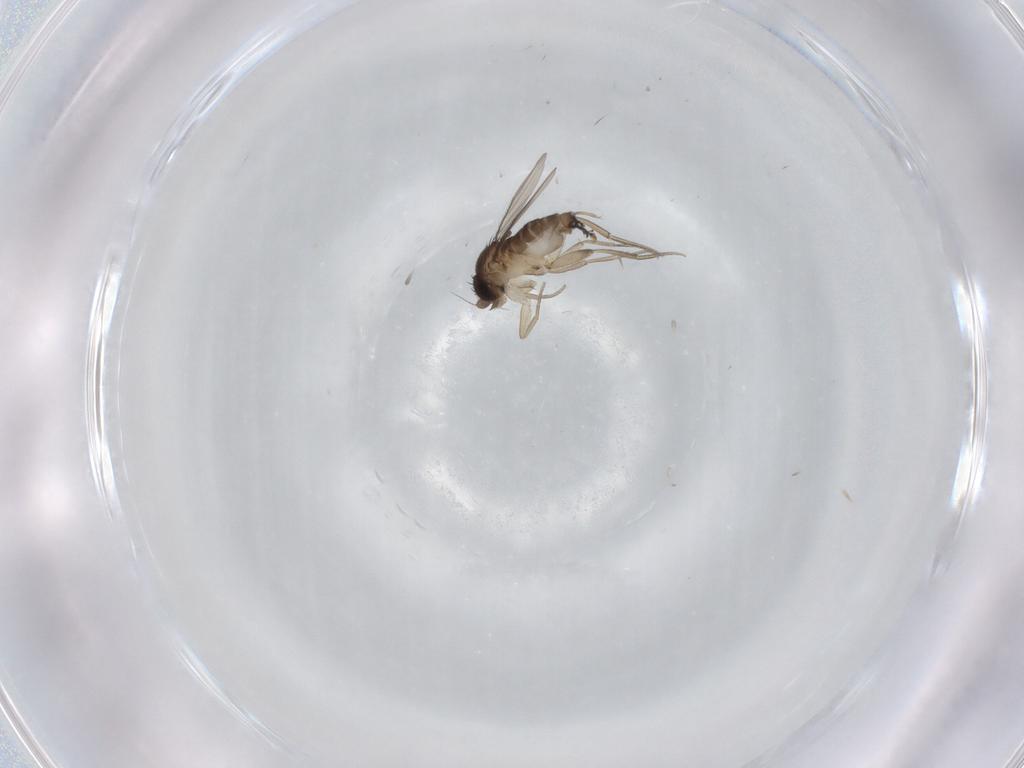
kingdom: Animalia
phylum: Arthropoda
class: Insecta
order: Diptera
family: Phoridae
